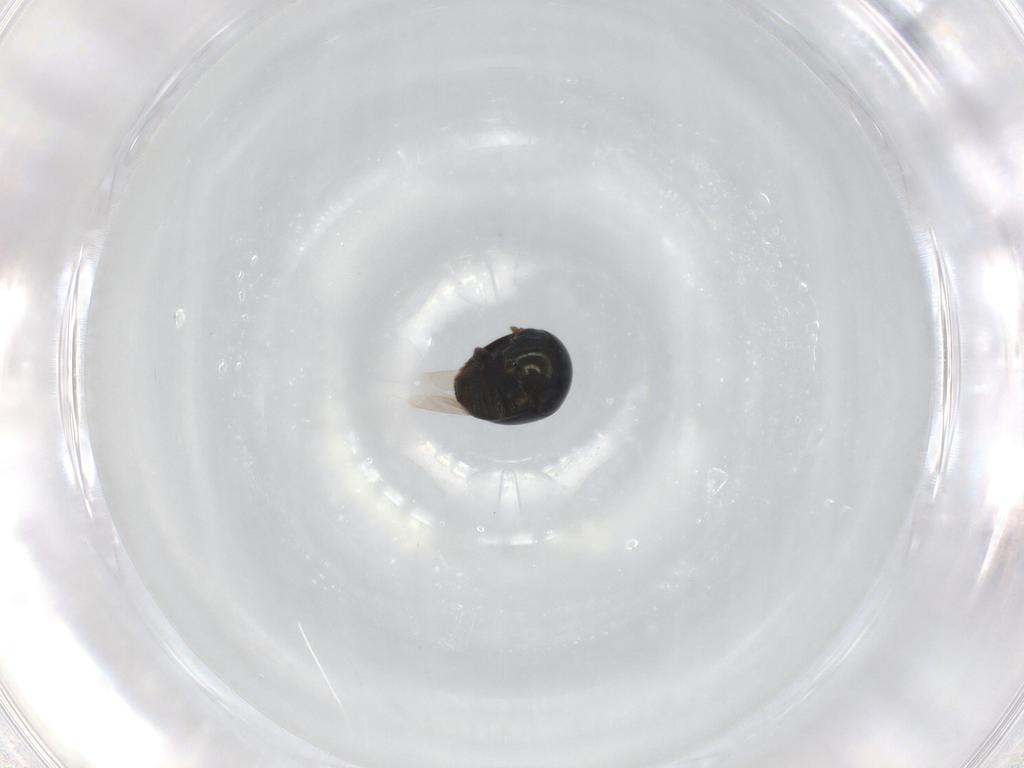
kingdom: Animalia
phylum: Arthropoda
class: Insecta
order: Coleoptera
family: Cybocephalidae
